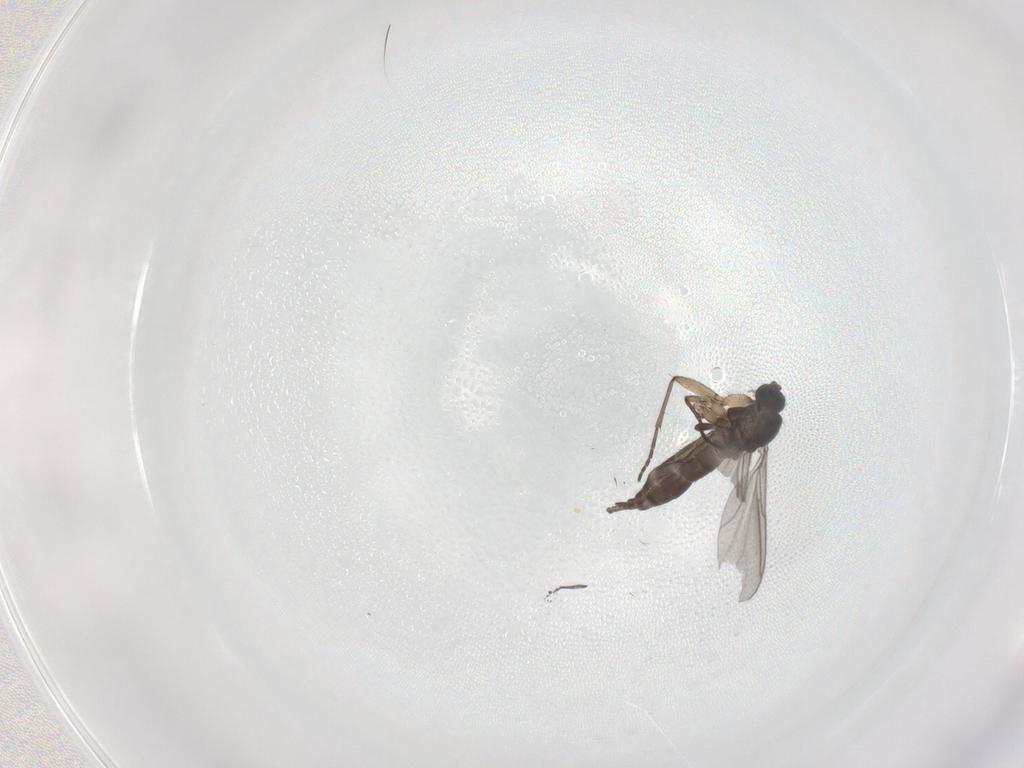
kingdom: Animalia
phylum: Arthropoda
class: Insecta
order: Diptera
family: Sciaridae
